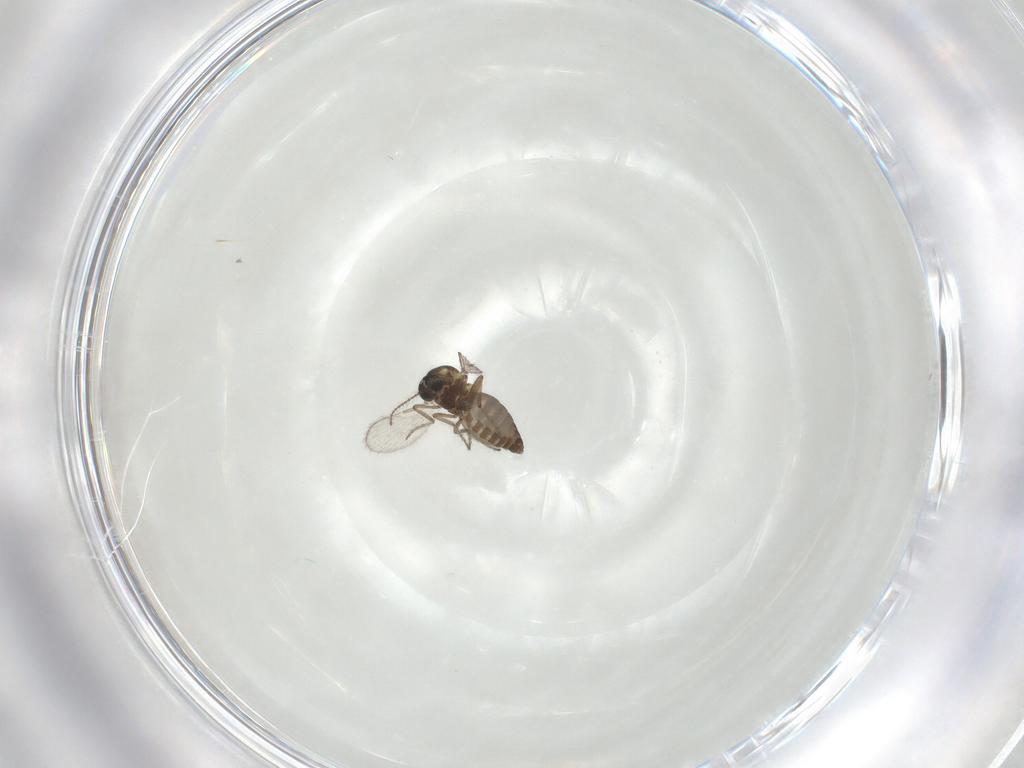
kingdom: Animalia
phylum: Arthropoda
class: Insecta
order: Diptera
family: Ceratopogonidae
